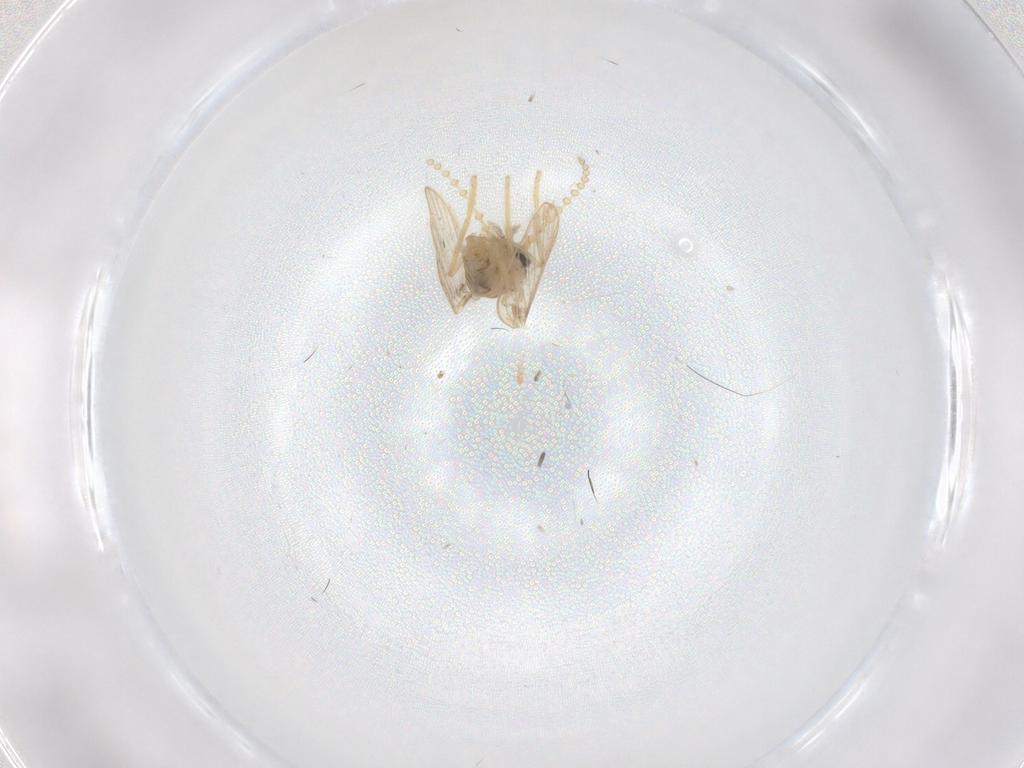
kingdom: Animalia
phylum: Arthropoda
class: Insecta
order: Diptera
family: Psychodidae
